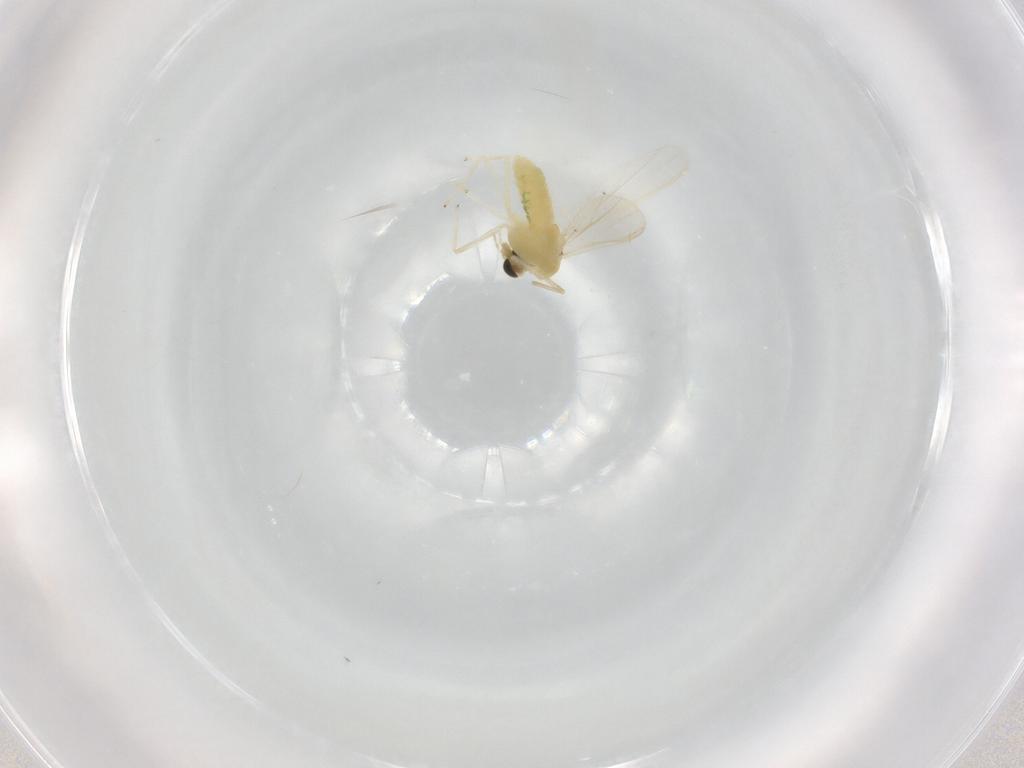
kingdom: Animalia
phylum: Arthropoda
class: Insecta
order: Diptera
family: Chironomidae
